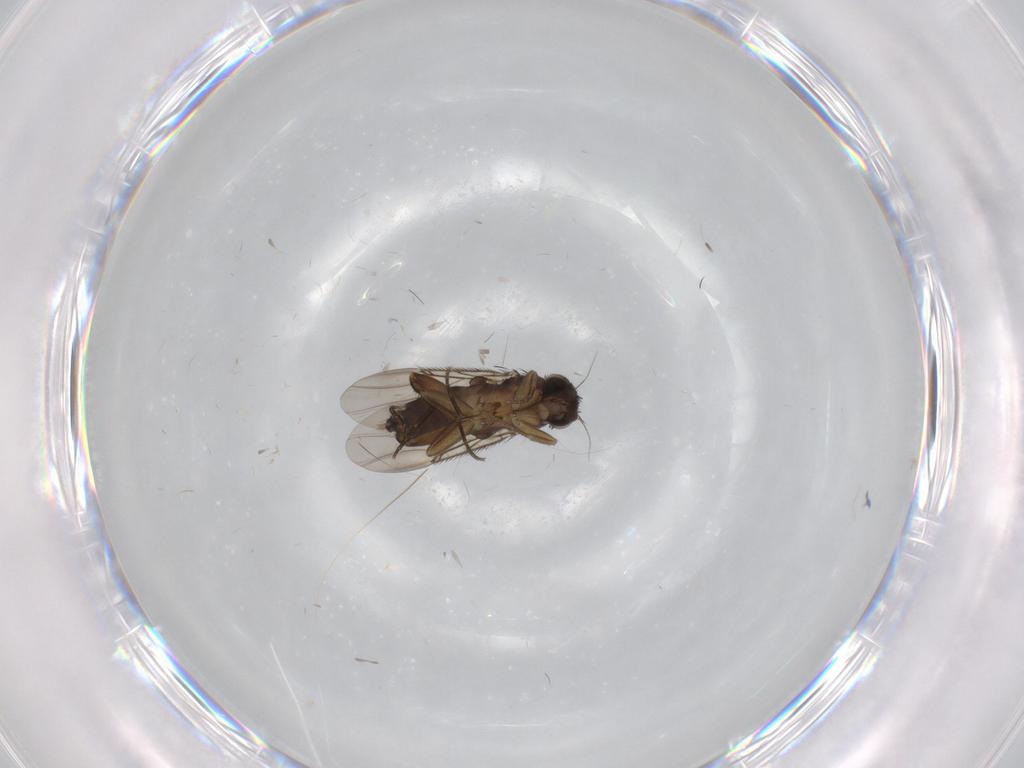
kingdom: Animalia
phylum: Arthropoda
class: Insecta
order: Diptera
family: Phoridae
